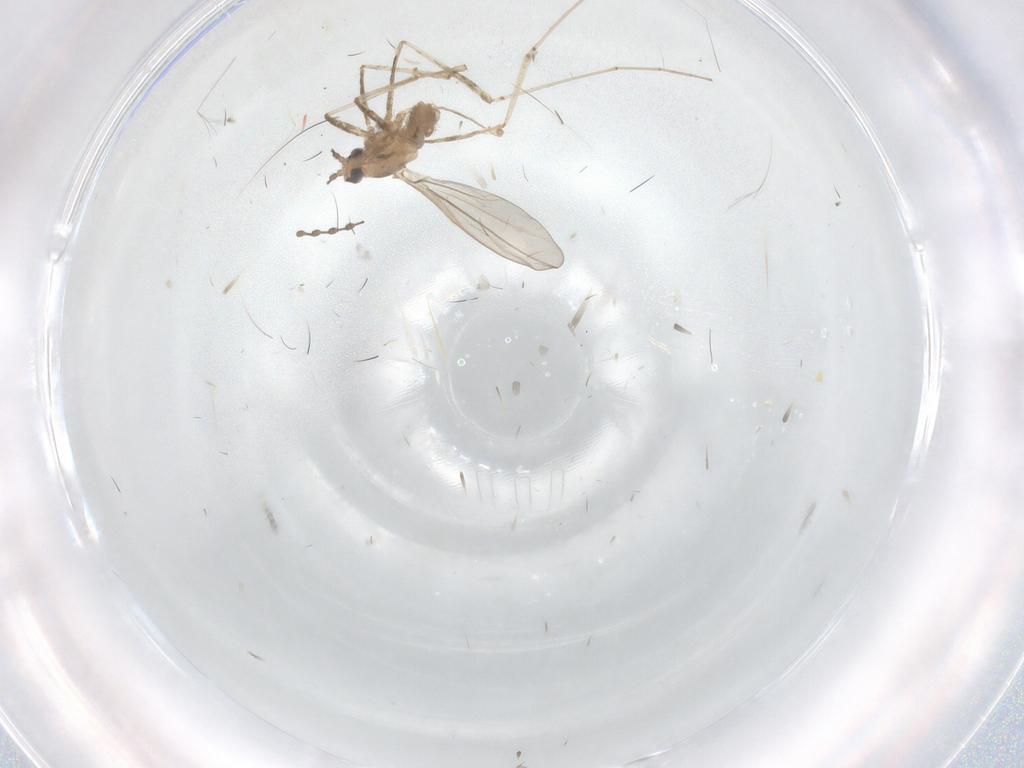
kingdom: Animalia
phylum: Arthropoda
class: Insecta
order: Diptera
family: Cecidomyiidae
